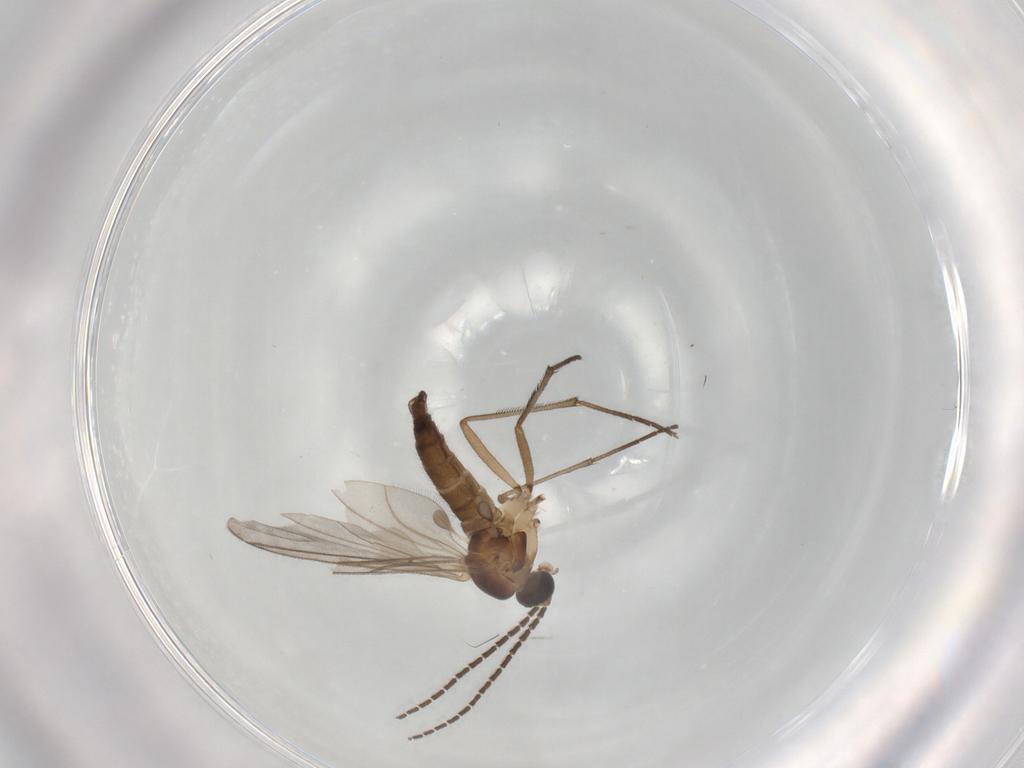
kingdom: Animalia
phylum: Arthropoda
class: Insecta
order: Diptera
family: Sciaridae
